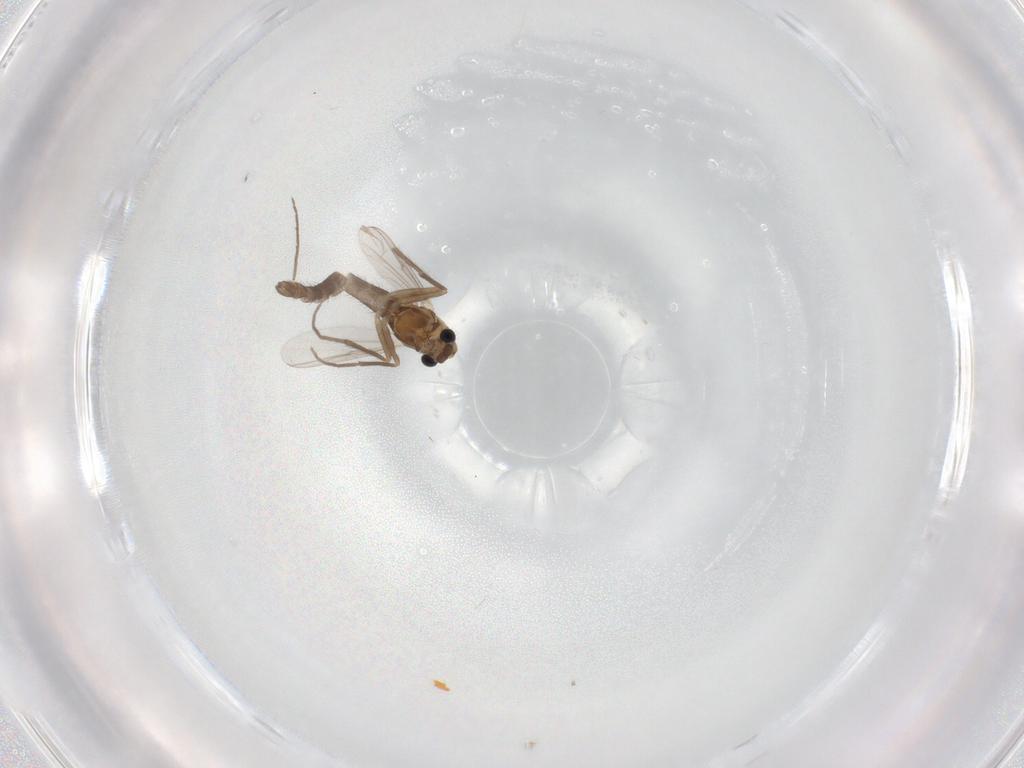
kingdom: Animalia
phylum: Arthropoda
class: Insecta
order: Diptera
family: Chironomidae
